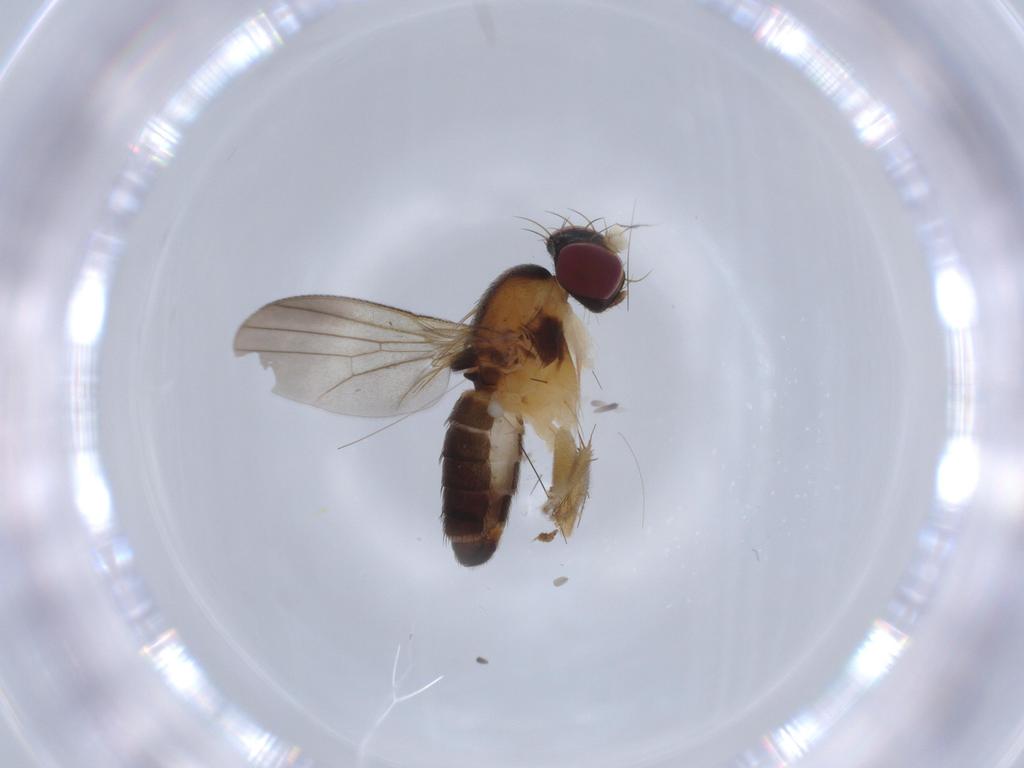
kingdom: Animalia
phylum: Arthropoda
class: Insecta
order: Diptera
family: Clusiidae
